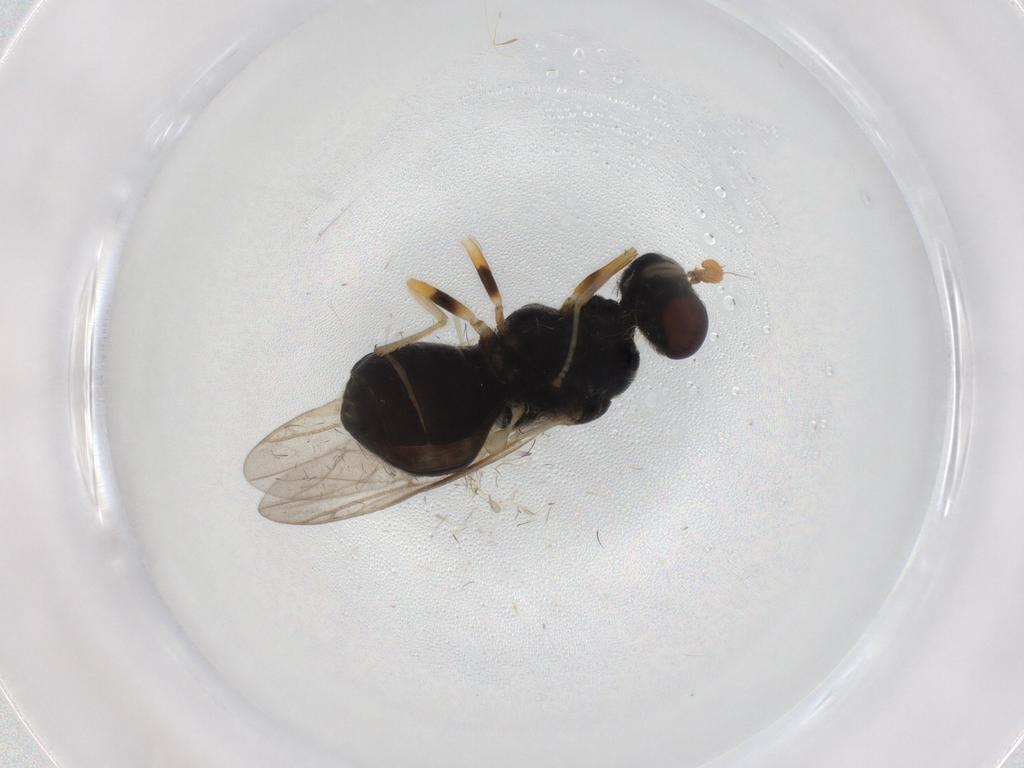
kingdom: Animalia
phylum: Arthropoda
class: Insecta
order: Diptera
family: Stratiomyidae
